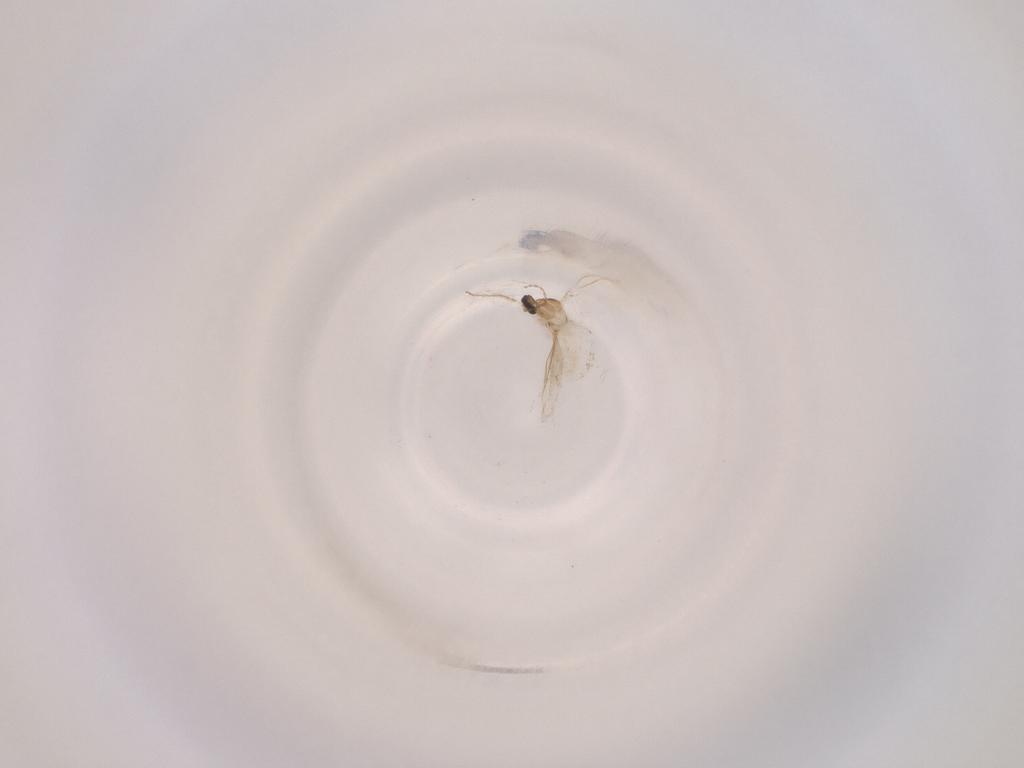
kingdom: Animalia
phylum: Arthropoda
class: Insecta
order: Diptera
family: Cecidomyiidae
